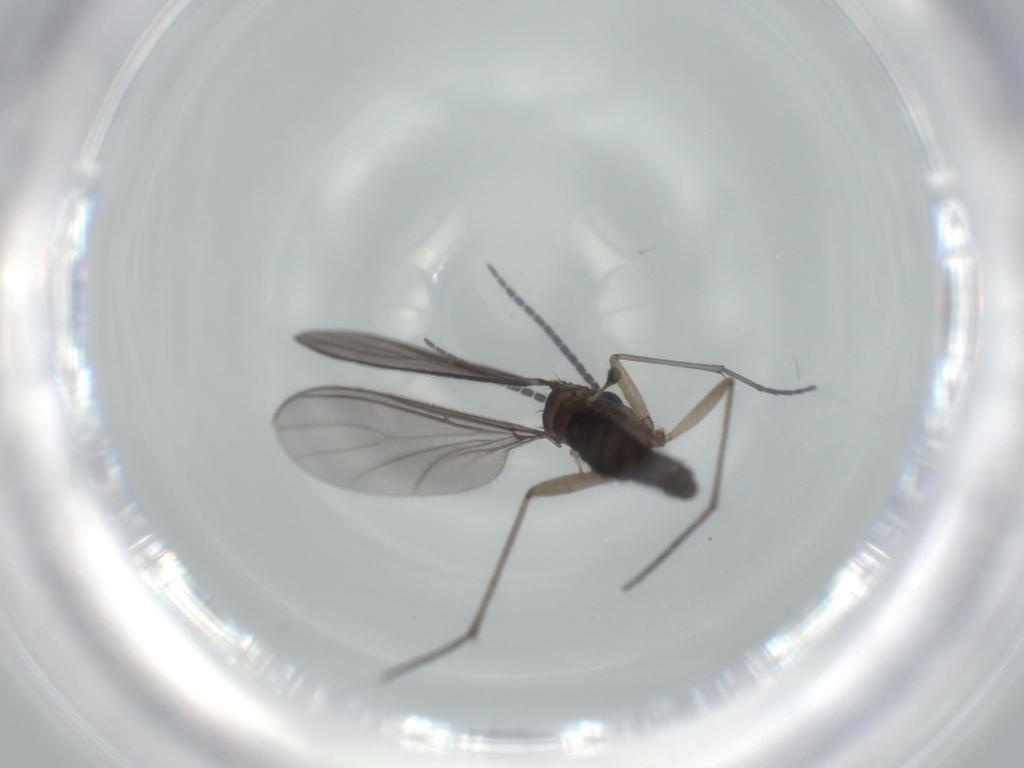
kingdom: Animalia
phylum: Arthropoda
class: Insecta
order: Diptera
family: Sciaridae
